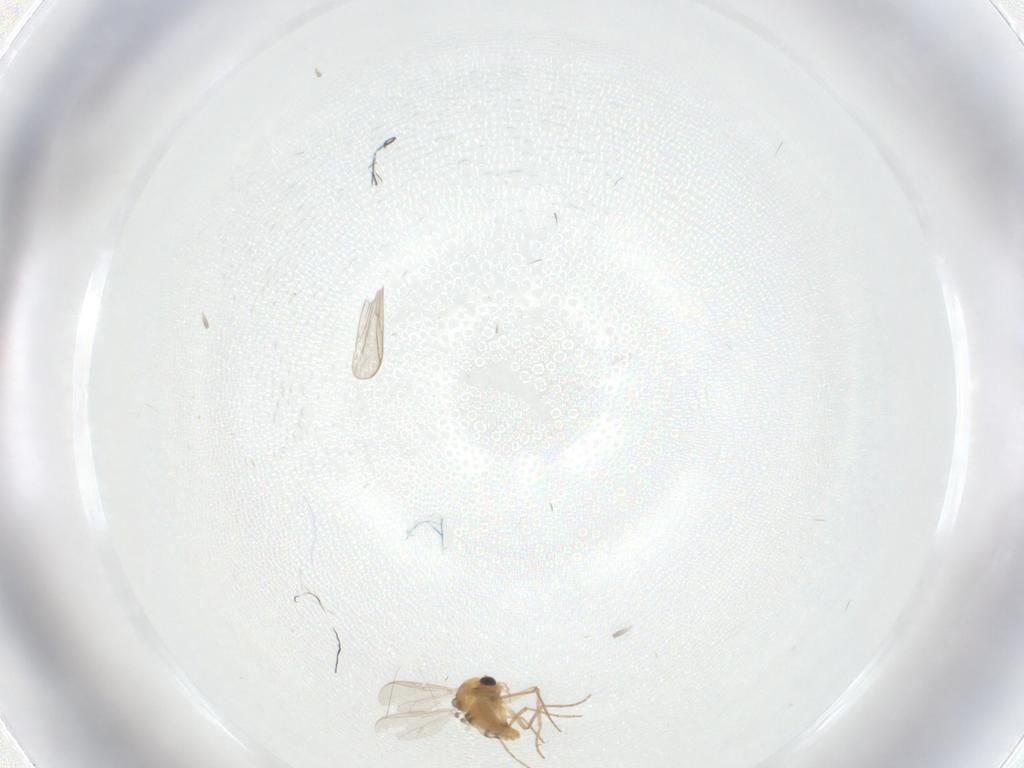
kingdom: Animalia
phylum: Arthropoda
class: Insecta
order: Diptera
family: Chironomidae
